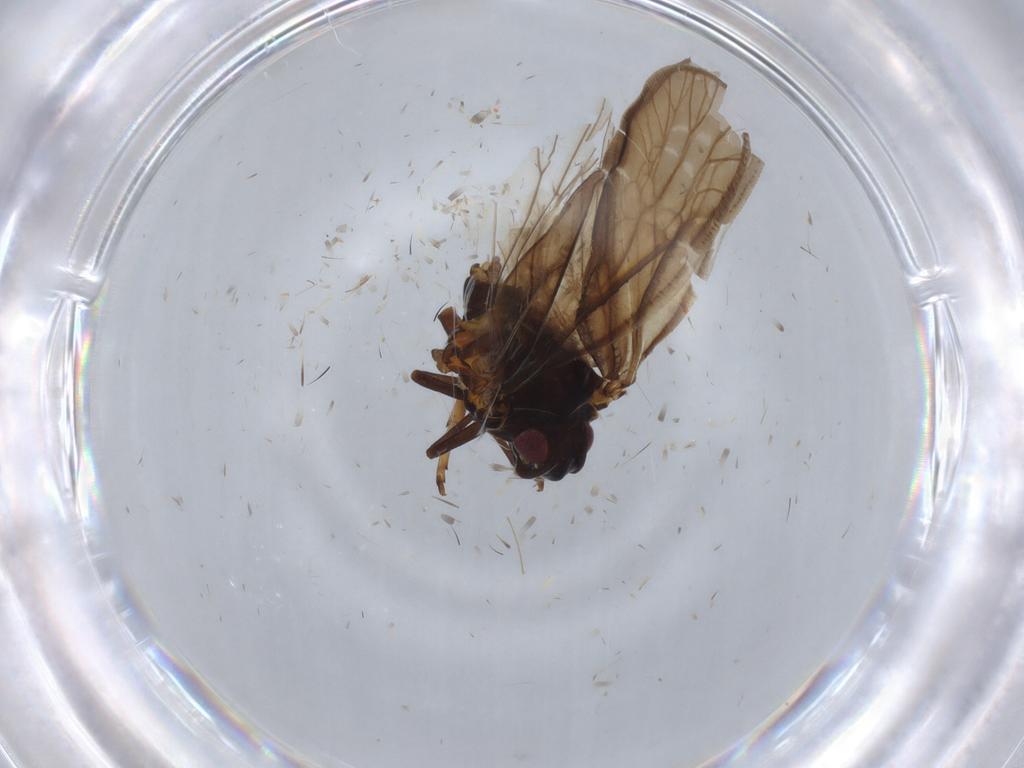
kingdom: Animalia
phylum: Arthropoda
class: Insecta
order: Hemiptera
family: Meenoplidae
